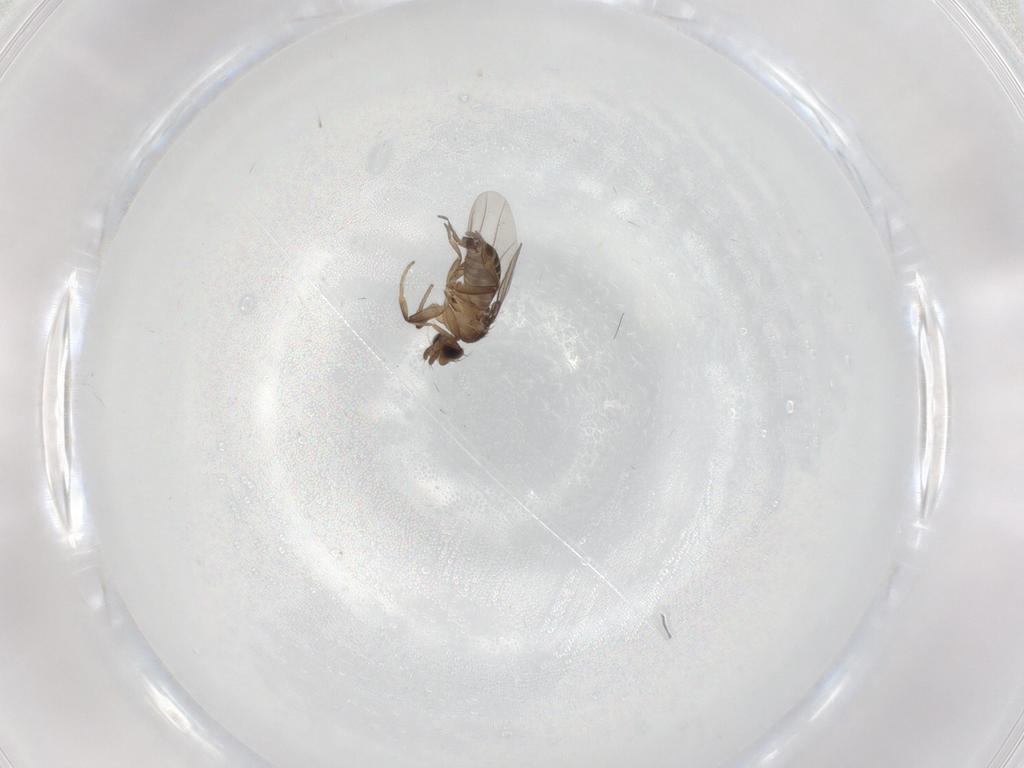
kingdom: Animalia
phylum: Arthropoda
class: Insecta
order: Diptera
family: Phoridae
